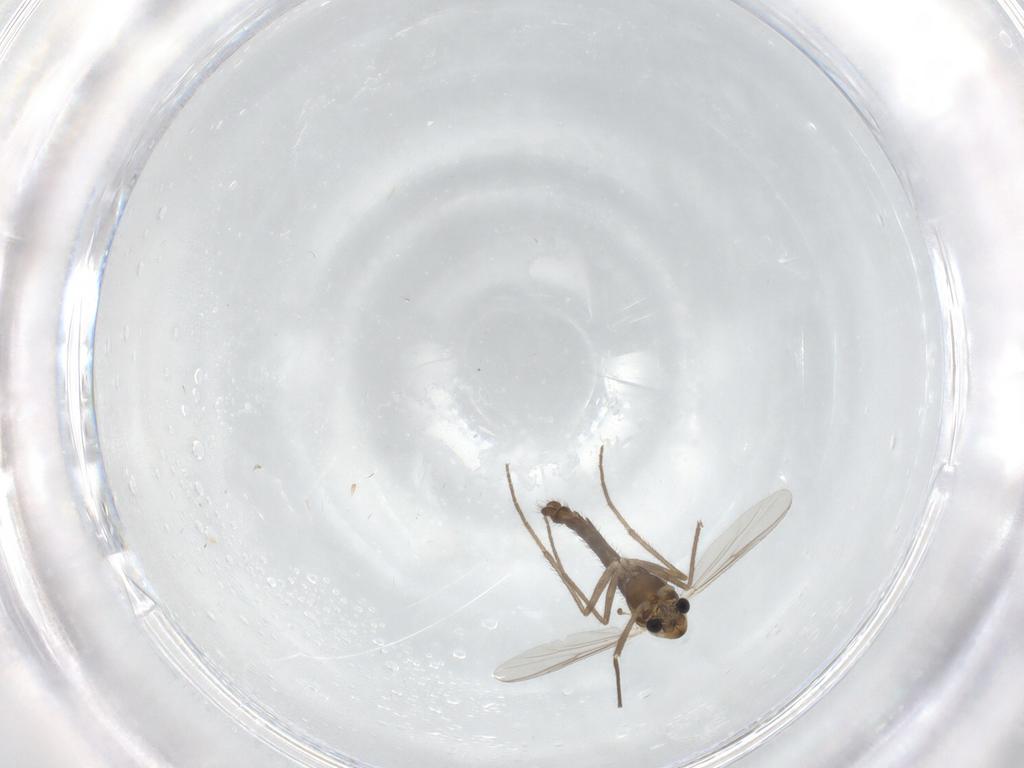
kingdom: Animalia
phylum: Arthropoda
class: Insecta
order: Diptera
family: Chironomidae
